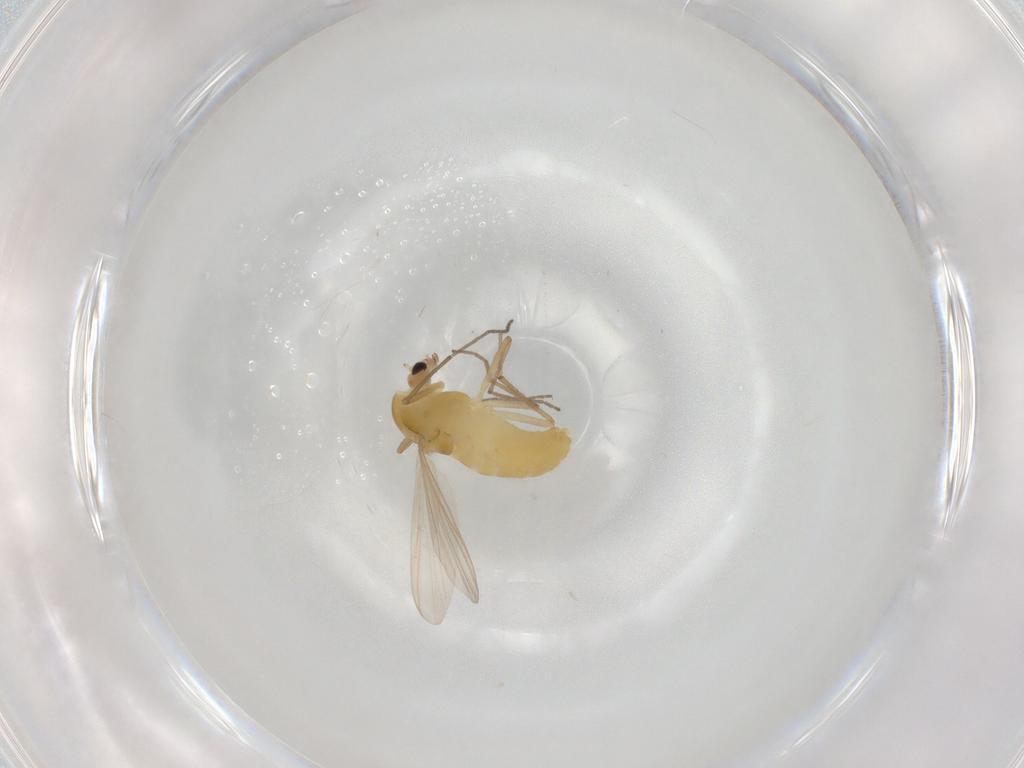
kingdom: Animalia
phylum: Arthropoda
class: Insecta
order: Diptera
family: Chironomidae
